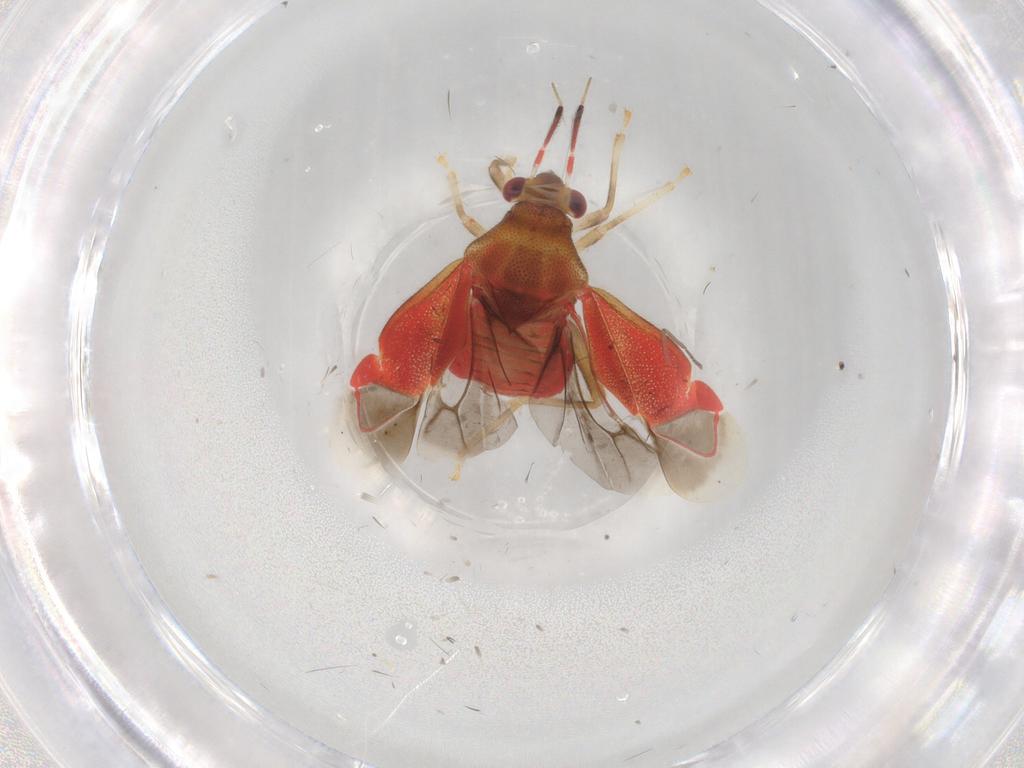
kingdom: Animalia
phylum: Arthropoda
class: Insecta
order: Hemiptera
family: Miridae
